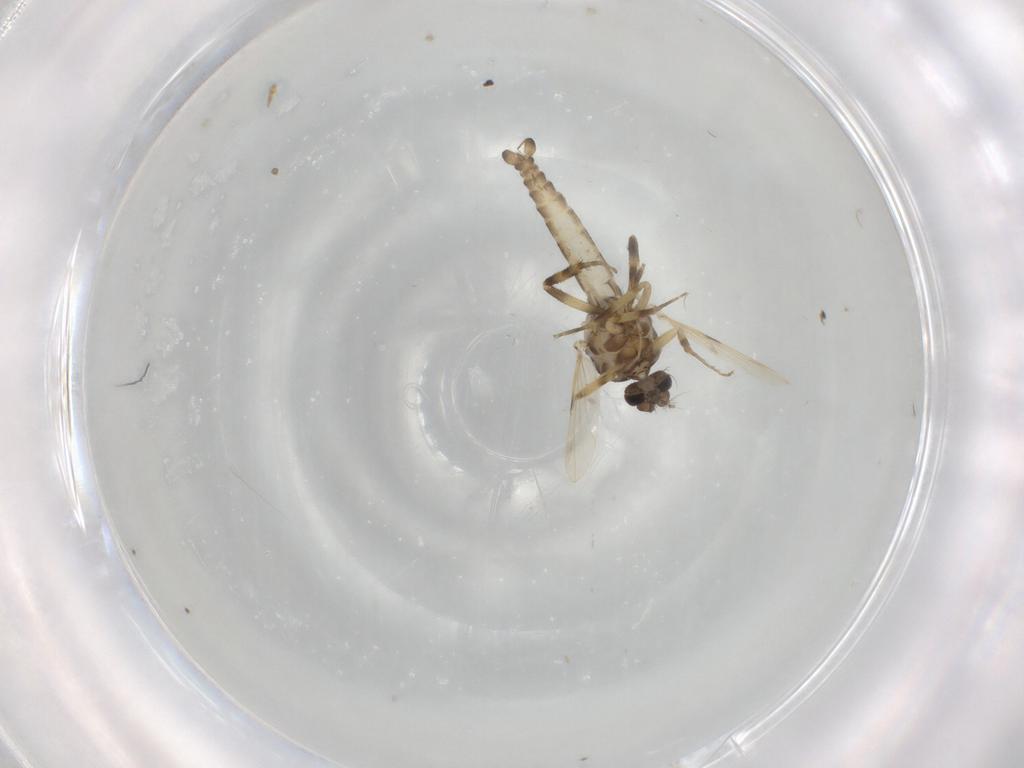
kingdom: Animalia
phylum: Arthropoda
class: Insecta
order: Diptera
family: Ceratopogonidae
